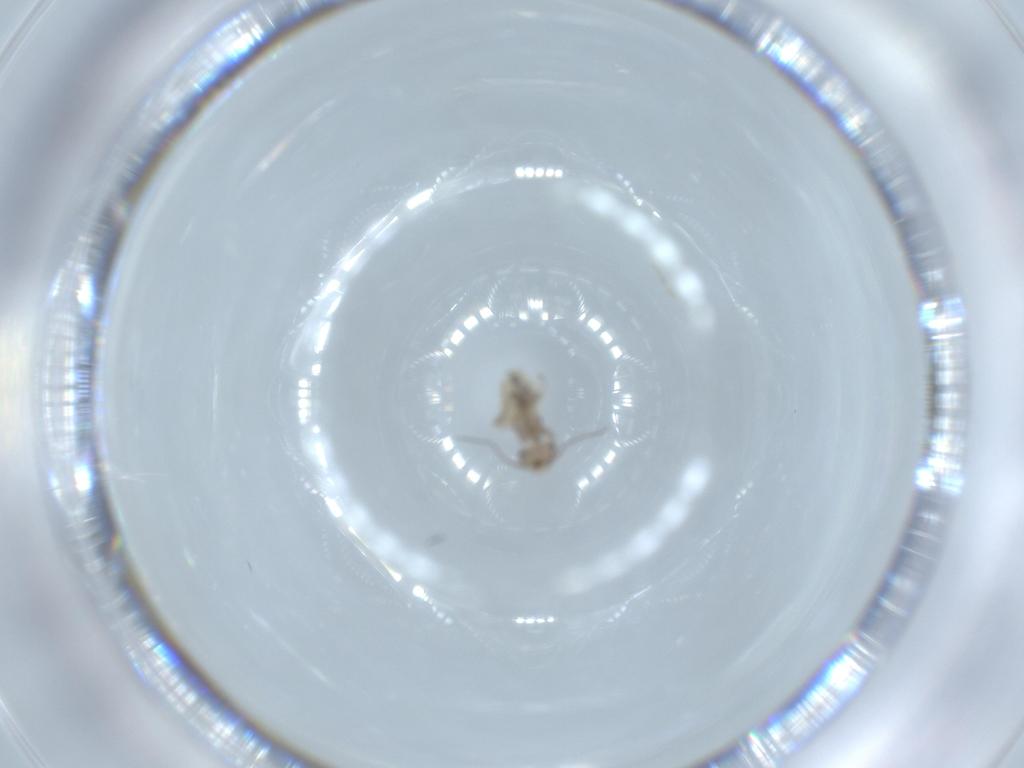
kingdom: Animalia
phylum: Arthropoda
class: Insecta
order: Psocodea
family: Lepidopsocidae
